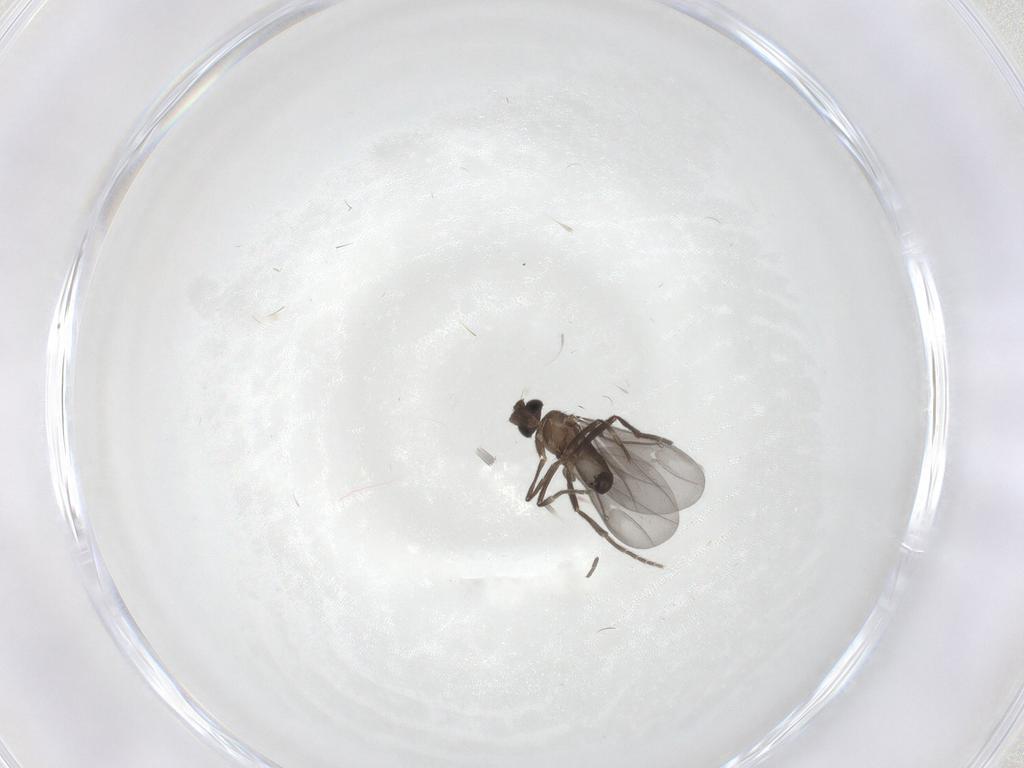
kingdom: Animalia
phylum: Arthropoda
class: Insecta
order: Diptera
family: Phoridae
